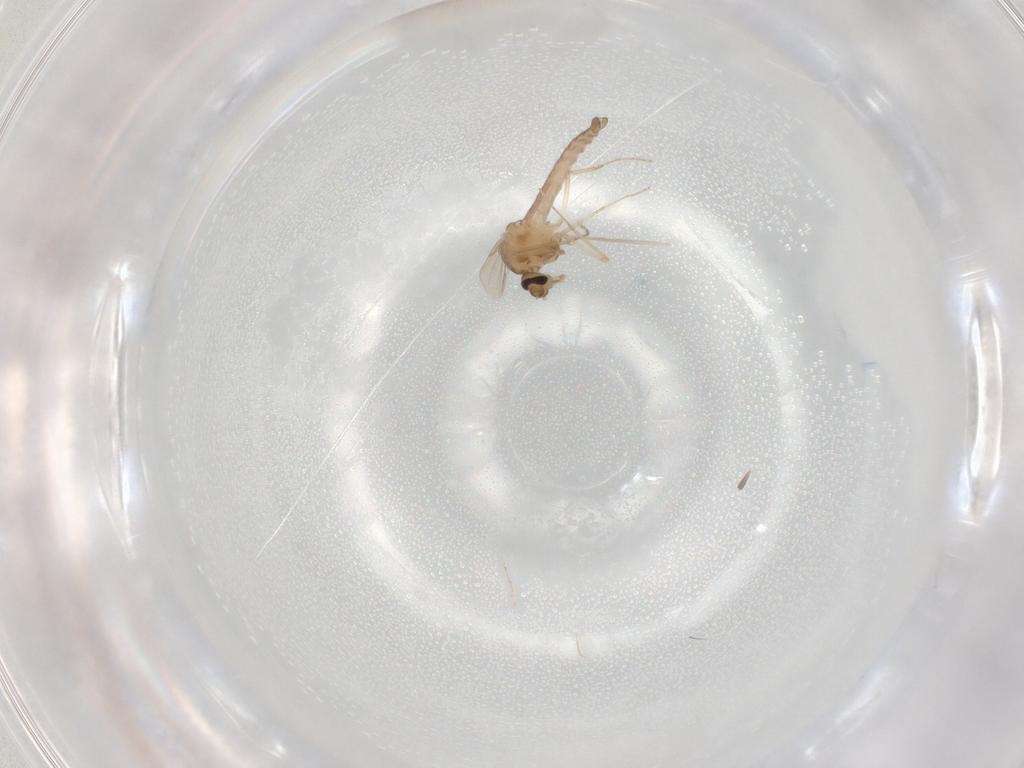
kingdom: Animalia
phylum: Arthropoda
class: Insecta
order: Diptera
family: Ceratopogonidae
